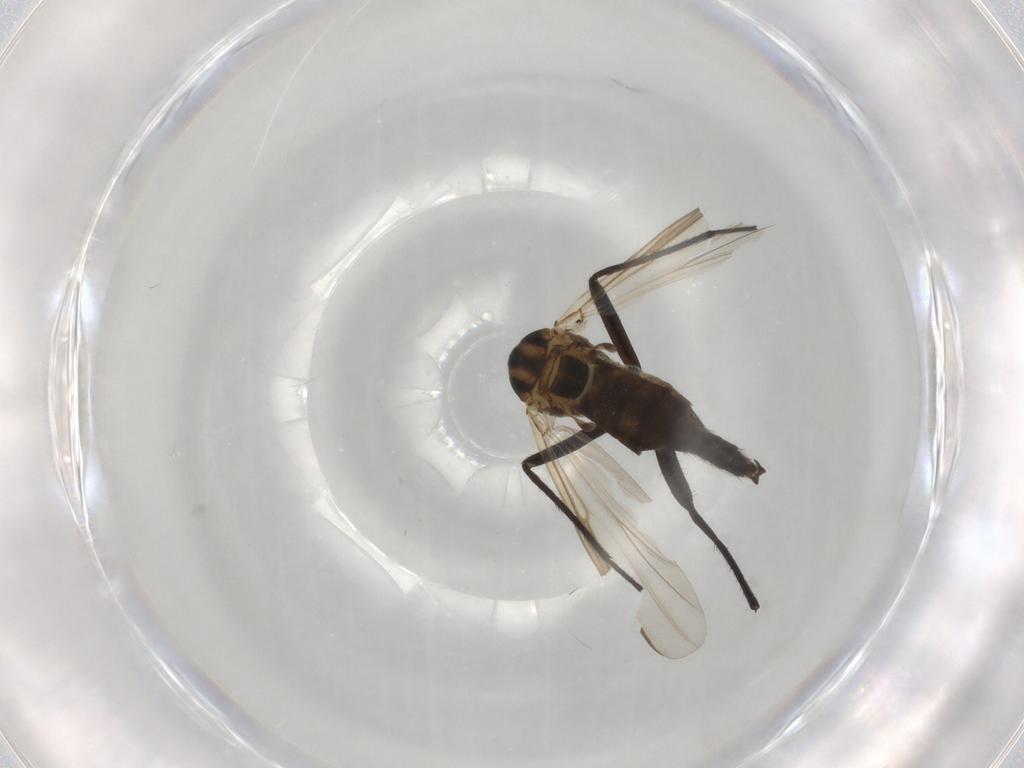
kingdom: Animalia
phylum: Arthropoda
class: Insecta
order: Diptera
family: Chironomidae
